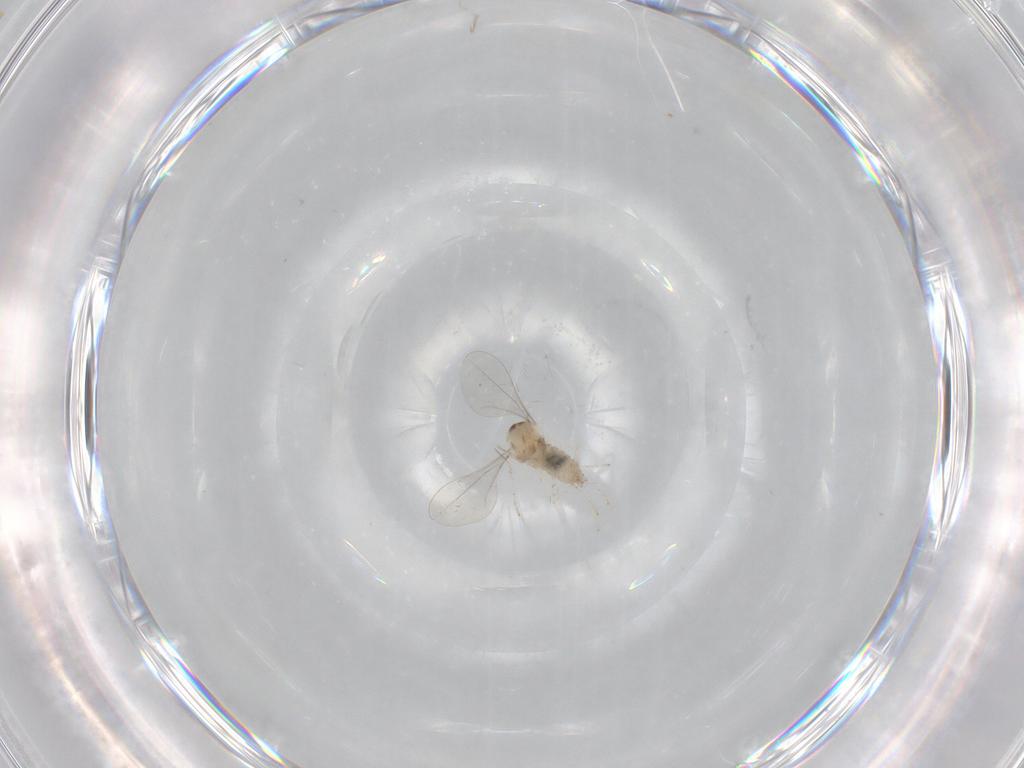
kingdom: Animalia
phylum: Arthropoda
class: Insecta
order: Diptera
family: Cecidomyiidae
